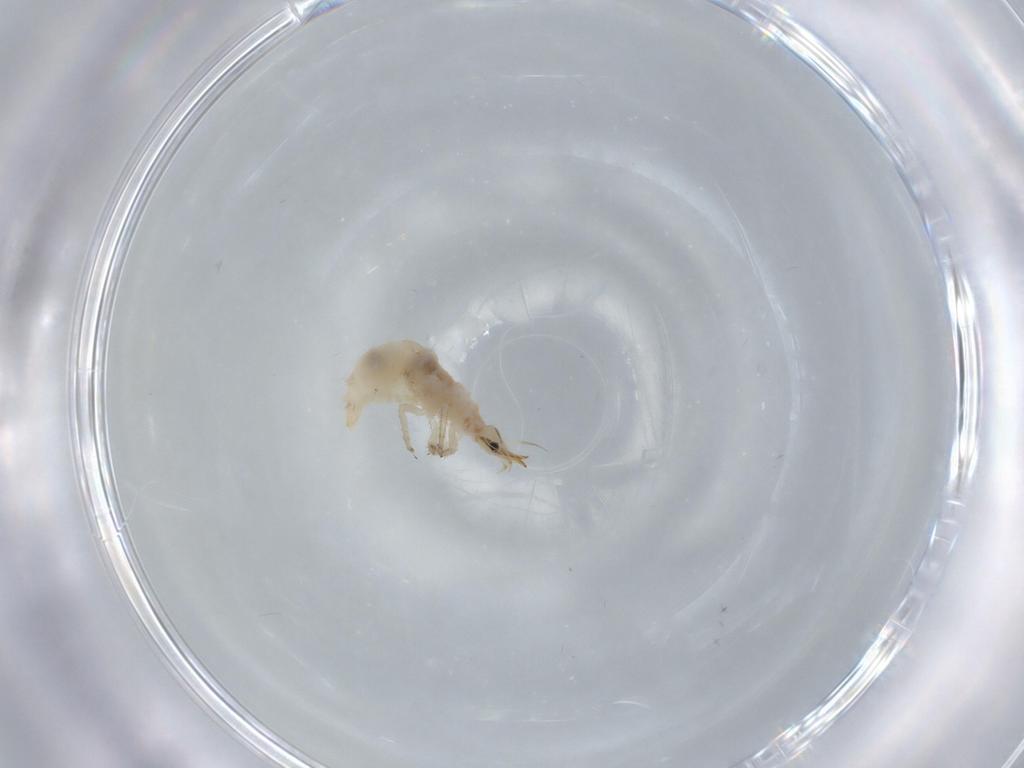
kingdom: Animalia
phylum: Arthropoda
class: Insecta
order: Neuroptera
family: Chrysopidae
